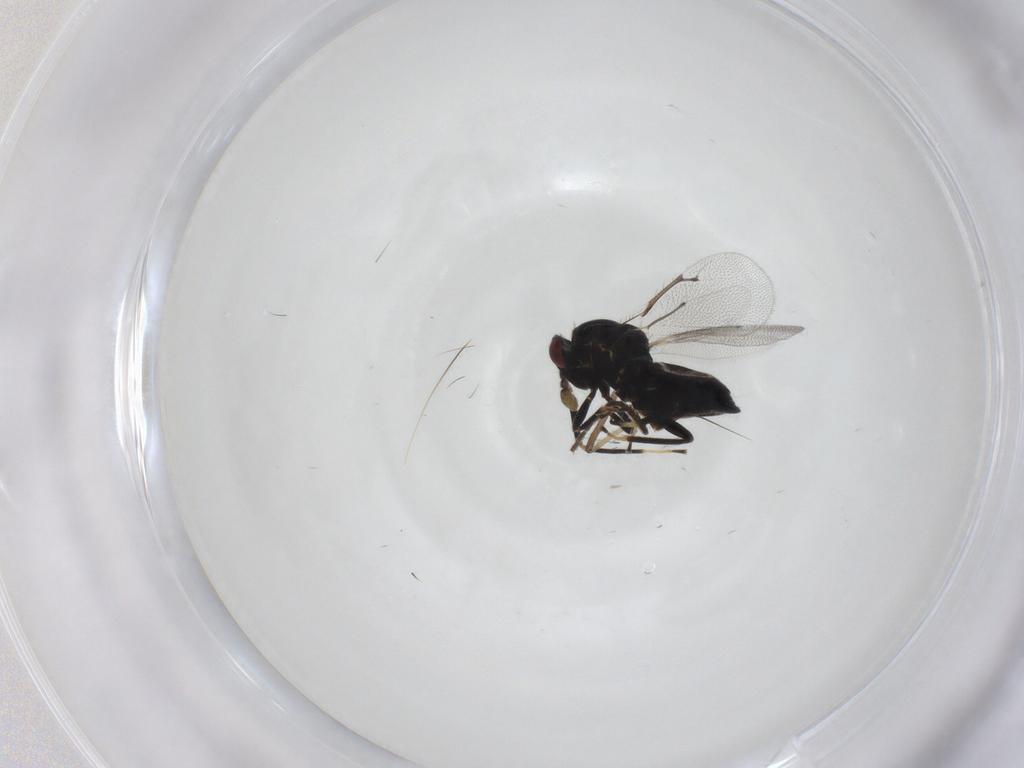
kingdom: Animalia
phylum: Arthropoda
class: Insecta
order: Hymenoptera
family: Eulophidae
